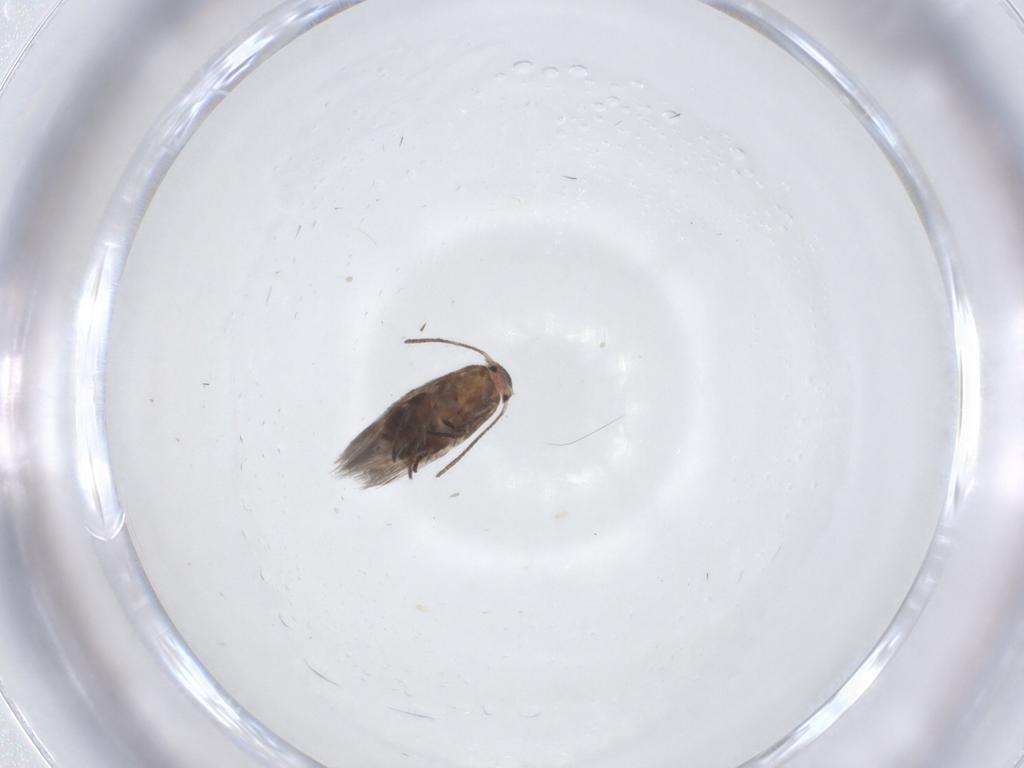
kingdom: Animalia
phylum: Arthropoda
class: Insecta
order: Lepidoptera
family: Lyonetiidae
